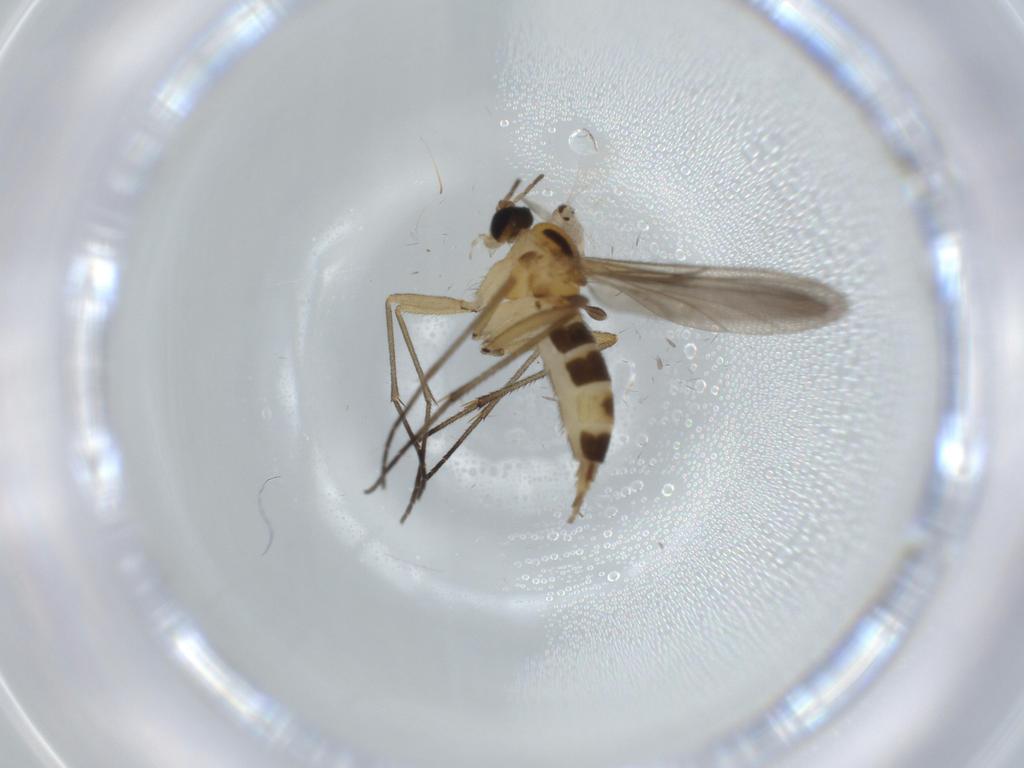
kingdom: Animalia
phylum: Arthropoda
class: Insecta
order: Diptera
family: Cecidomyiidae
